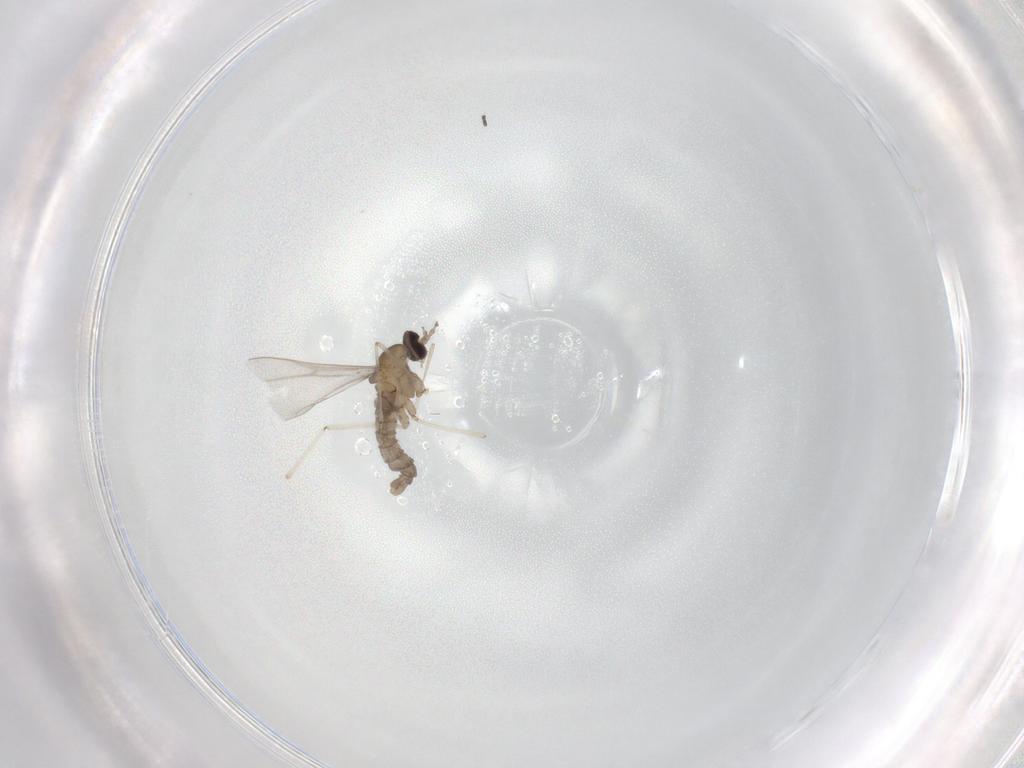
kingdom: Animalia
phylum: Arthropoda
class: Insecta
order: Diptera
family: Cecidomyiidae
